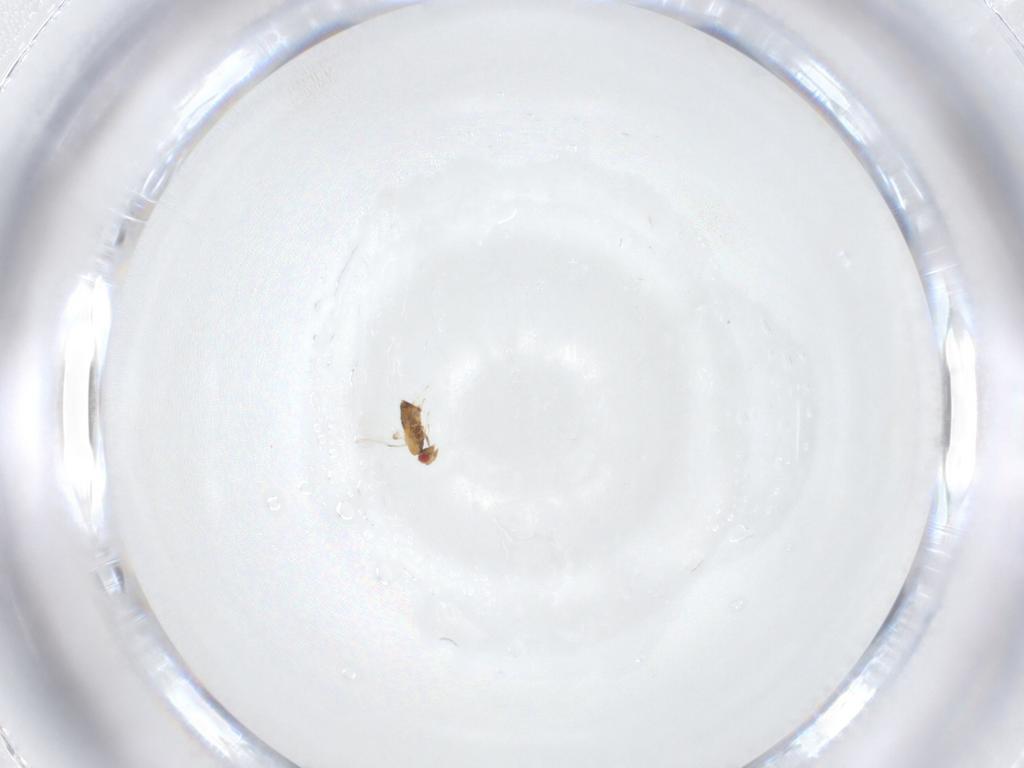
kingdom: Animalia
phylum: Arthropoda
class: Insecta
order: Hymenoptera
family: Trichogrammatidae
